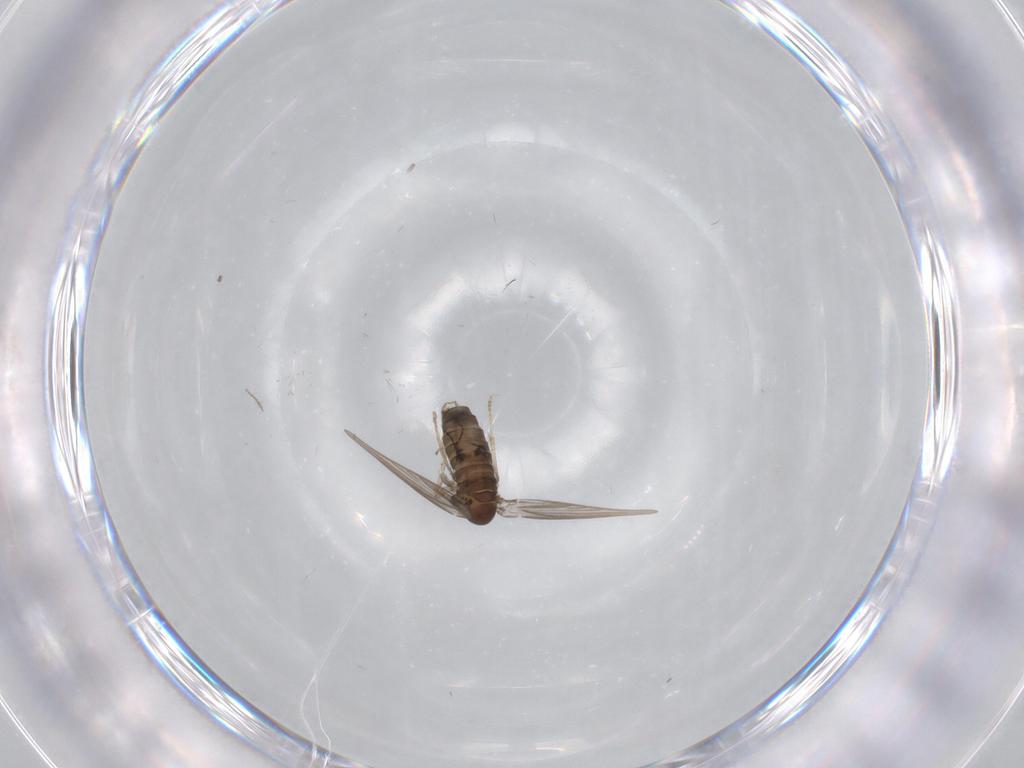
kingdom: Animalia
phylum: Arthropoda
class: Insecta
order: Diptera
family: Psychodidae
